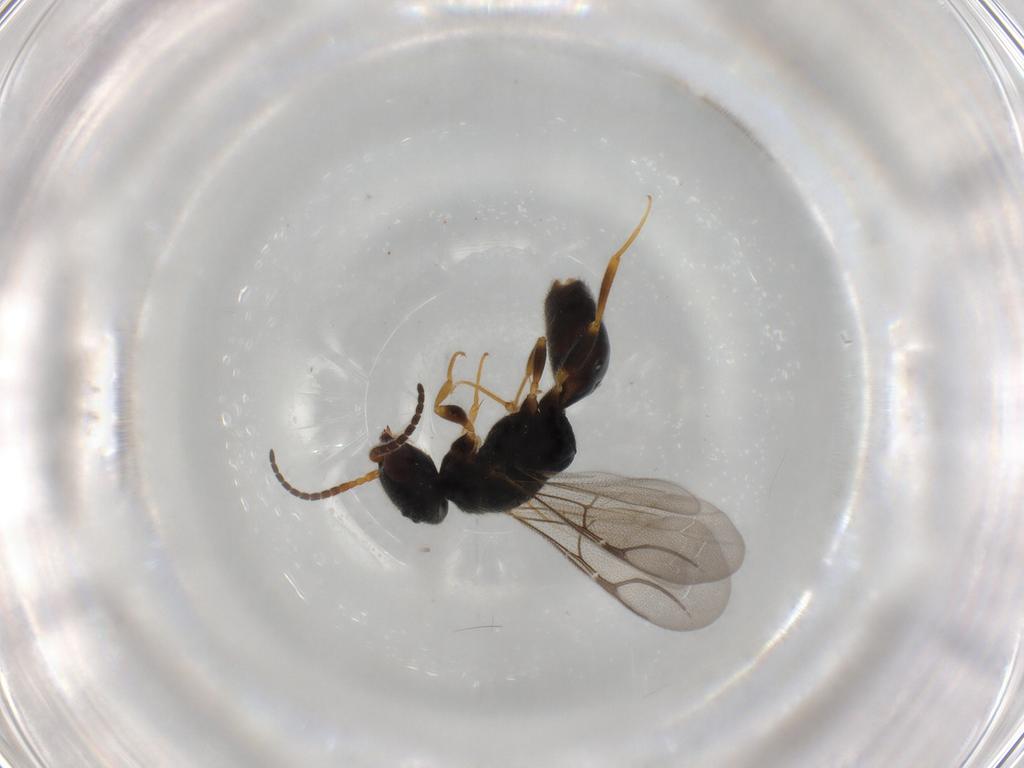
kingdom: Animalia
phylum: Arthropoda
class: Insecta
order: Hymenoptera
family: Bethylidae
